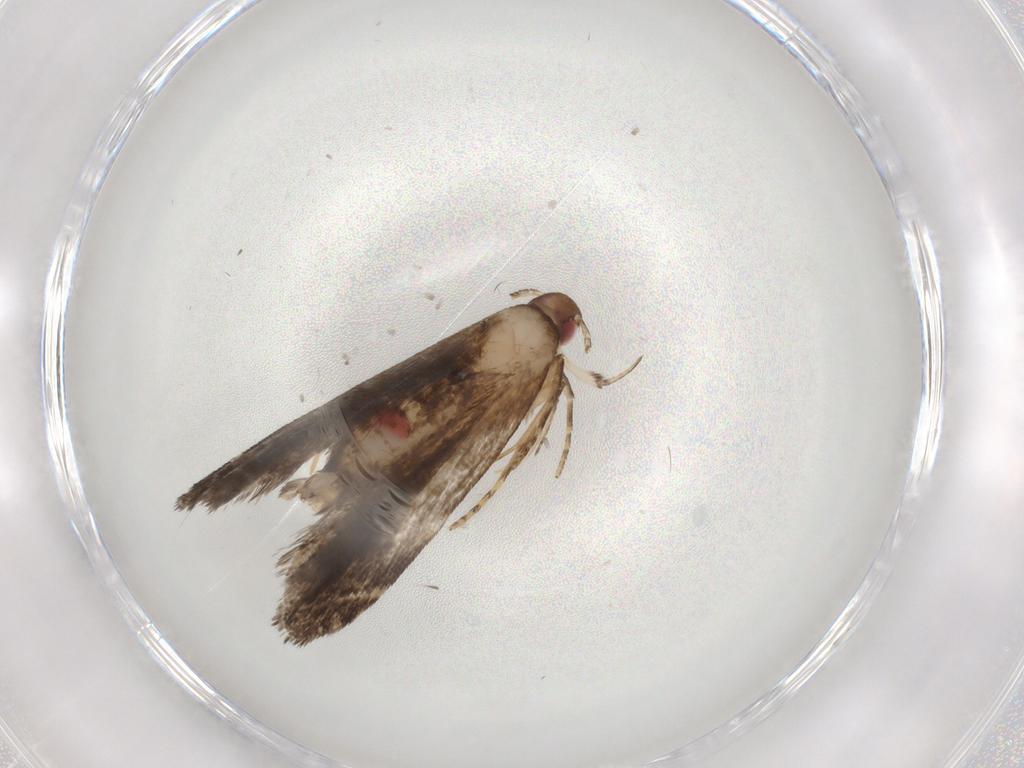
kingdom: Animalia
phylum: Arthropoda
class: Insecta
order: Lepidoptera
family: Gelechiidae
